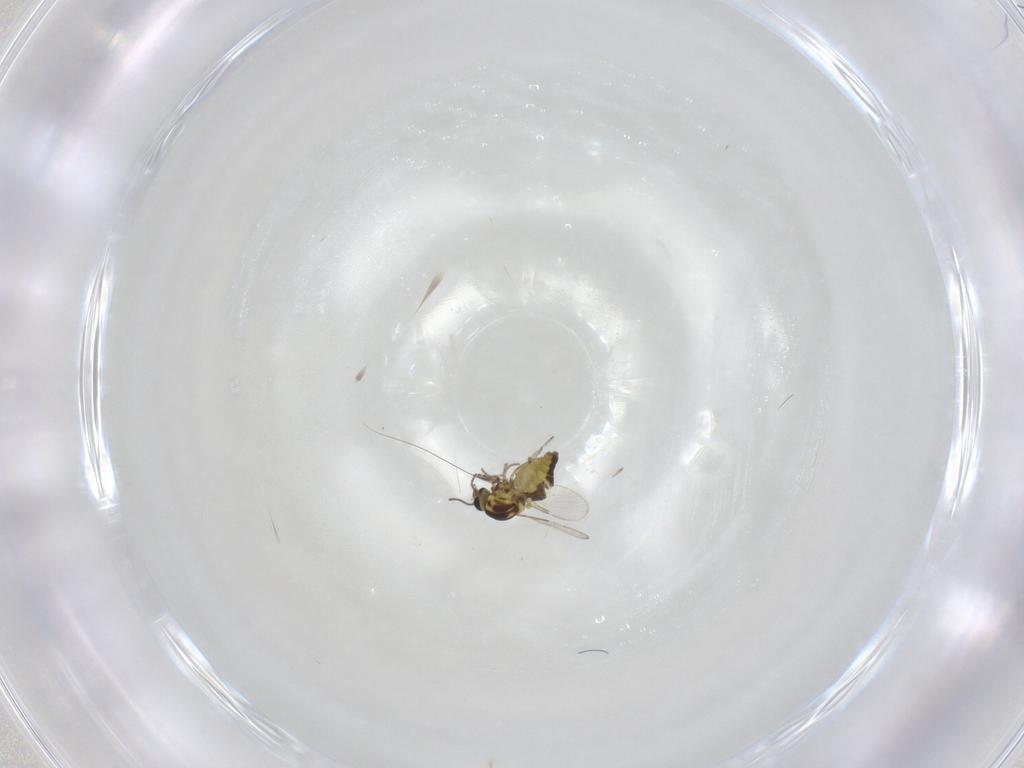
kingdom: Animalia
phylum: Arthropoda
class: Insecta
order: Diptera
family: Ceratopogonidae
